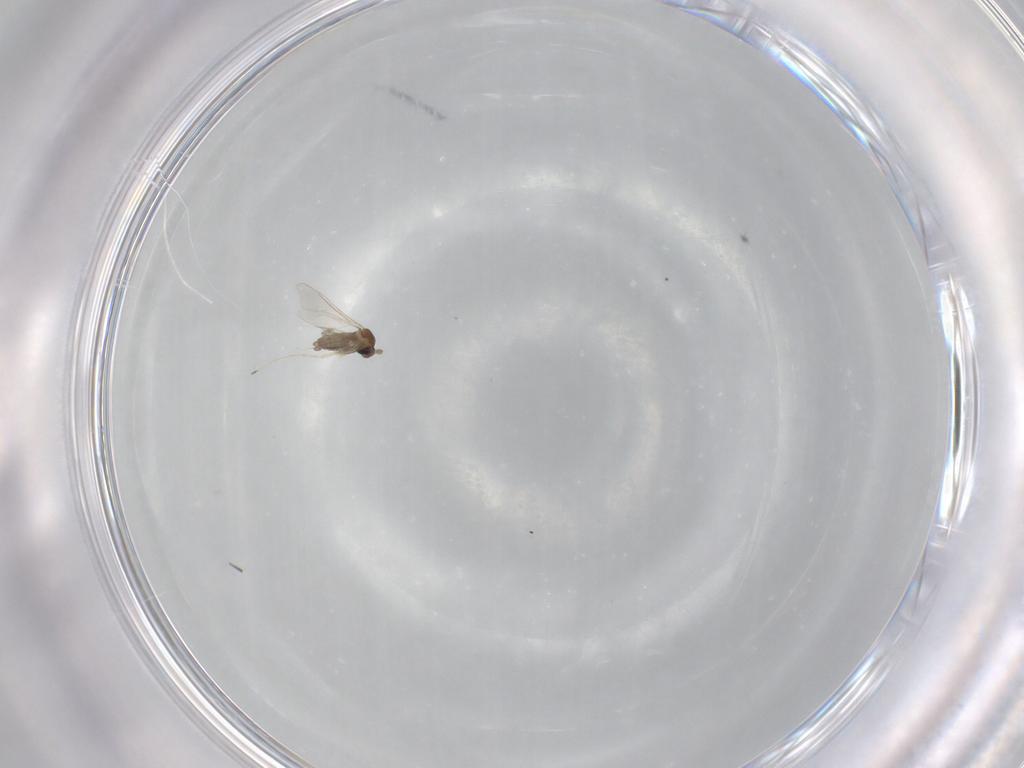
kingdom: Animalia
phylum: Arthropoda
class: Insecta
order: Diptera
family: Cecidomyiidae
